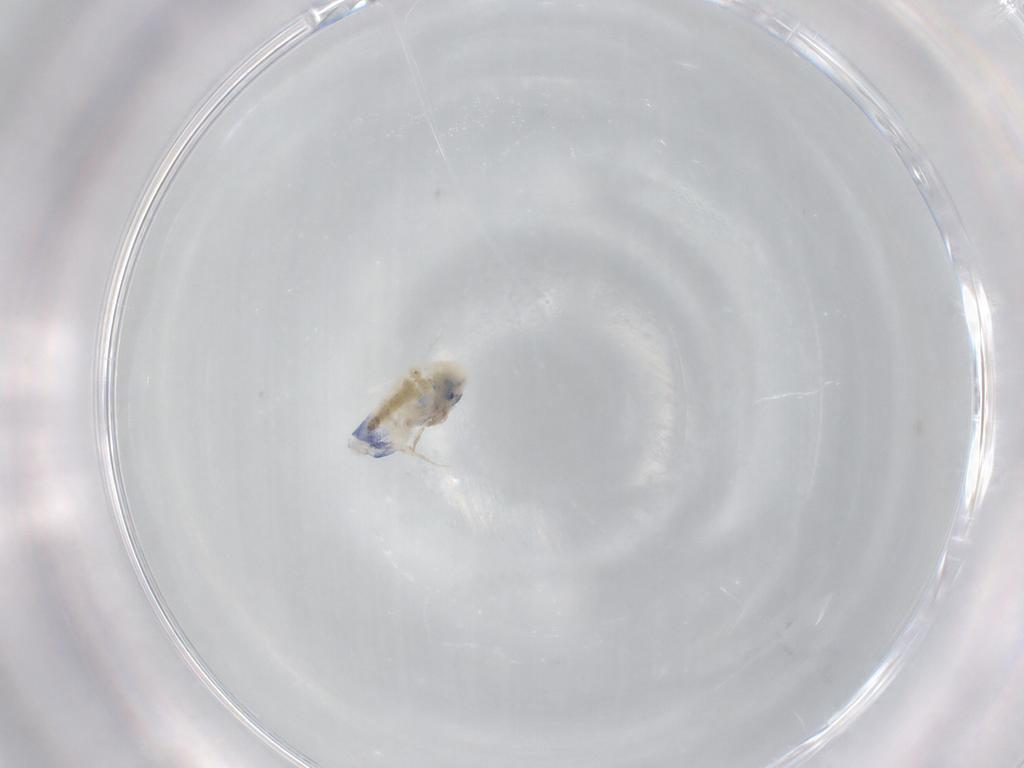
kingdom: Animalia
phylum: Arthropoda
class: Collembola
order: Entomobryomorpha
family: Entomobryidae
